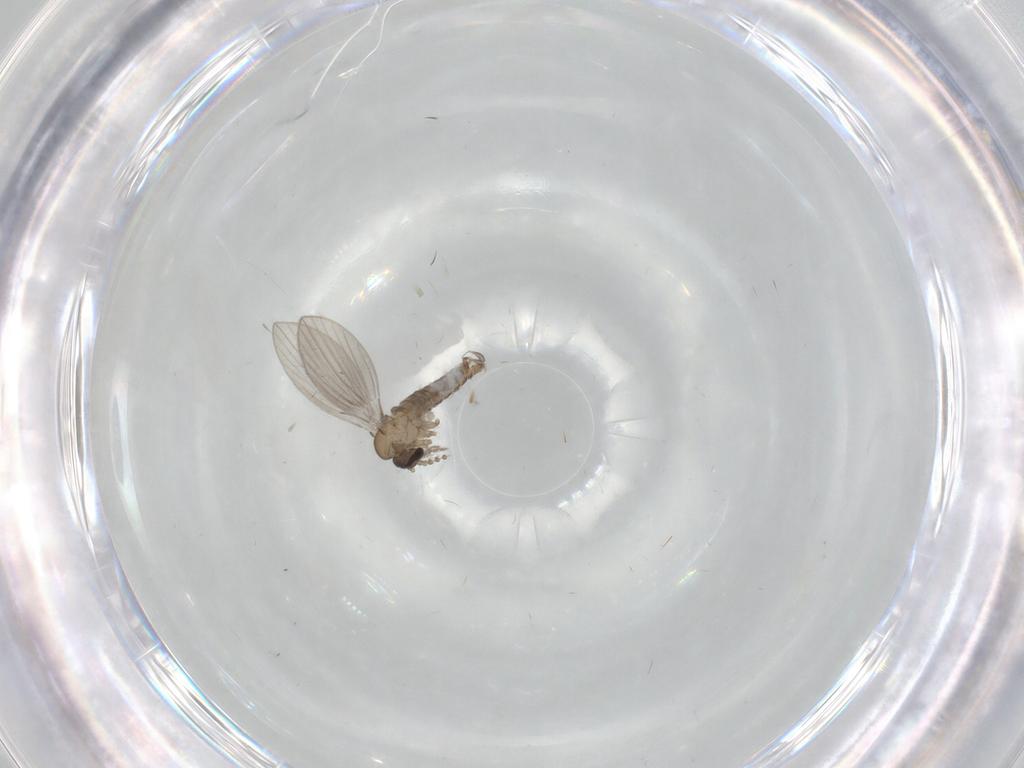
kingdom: Animalia
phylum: Arthropoda
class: Insecta
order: Diptera
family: Psychodidae
